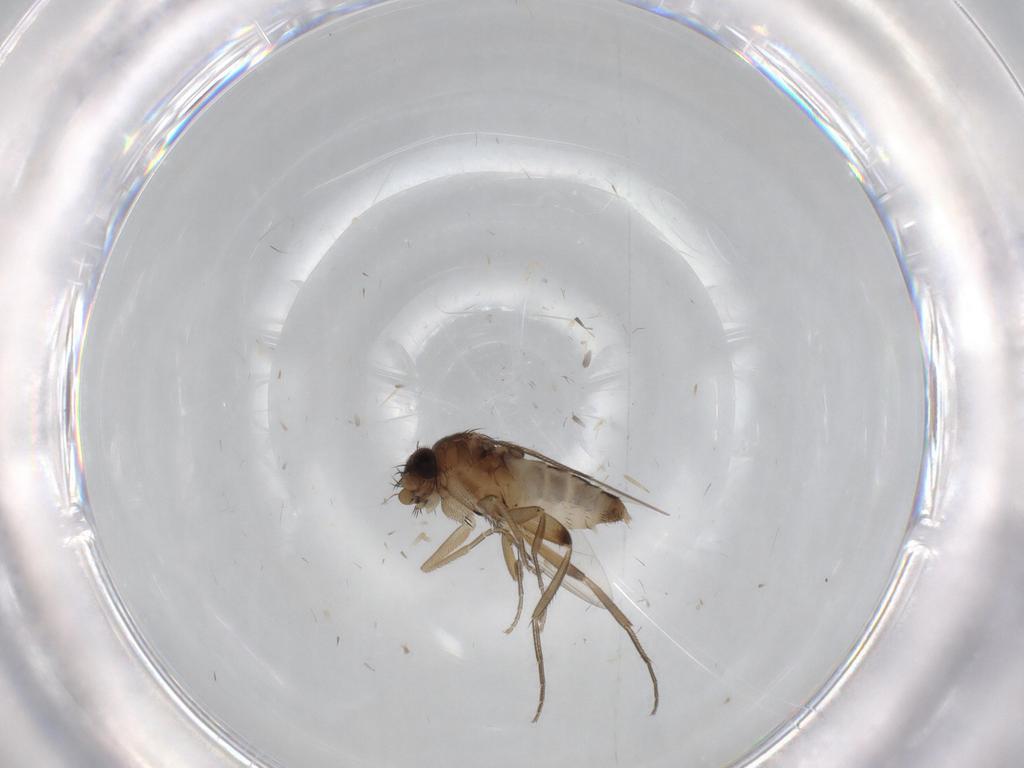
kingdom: Animalia
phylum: Arthropoda
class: Insecta
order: Diptera
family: Phoridae
